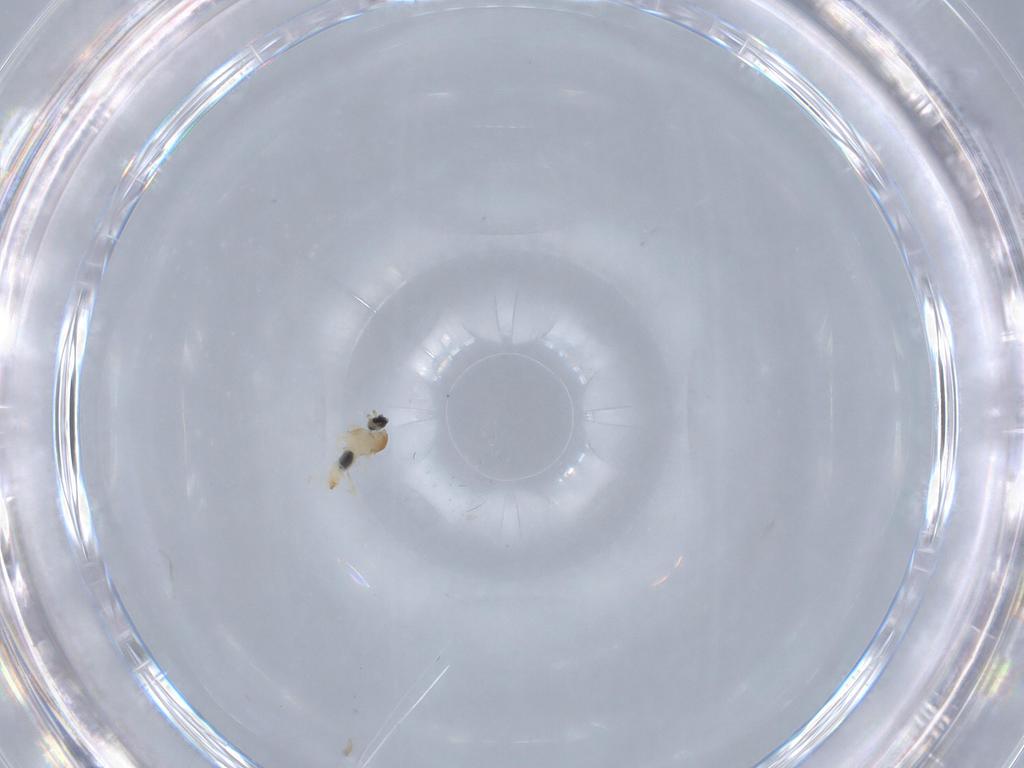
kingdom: Animalia
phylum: Arthropoda
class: Insecta
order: Diptera
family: Cecidomyiidae
